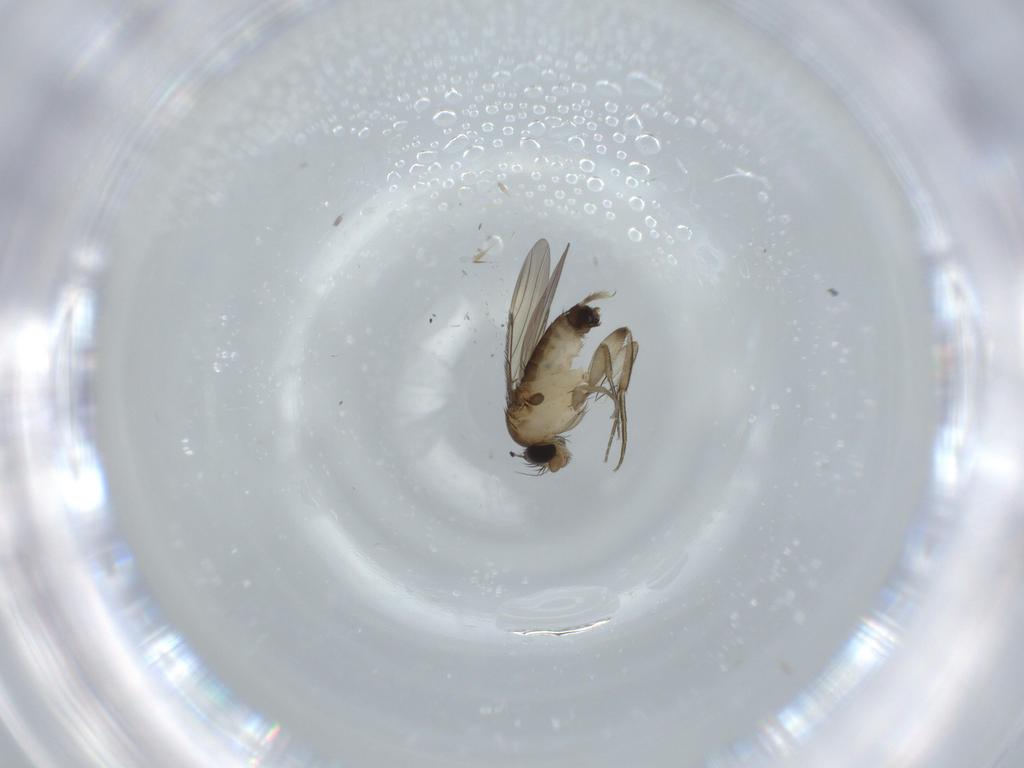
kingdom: Animalia
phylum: Arthropoda
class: Insecta
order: Diptera
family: Phoridae
